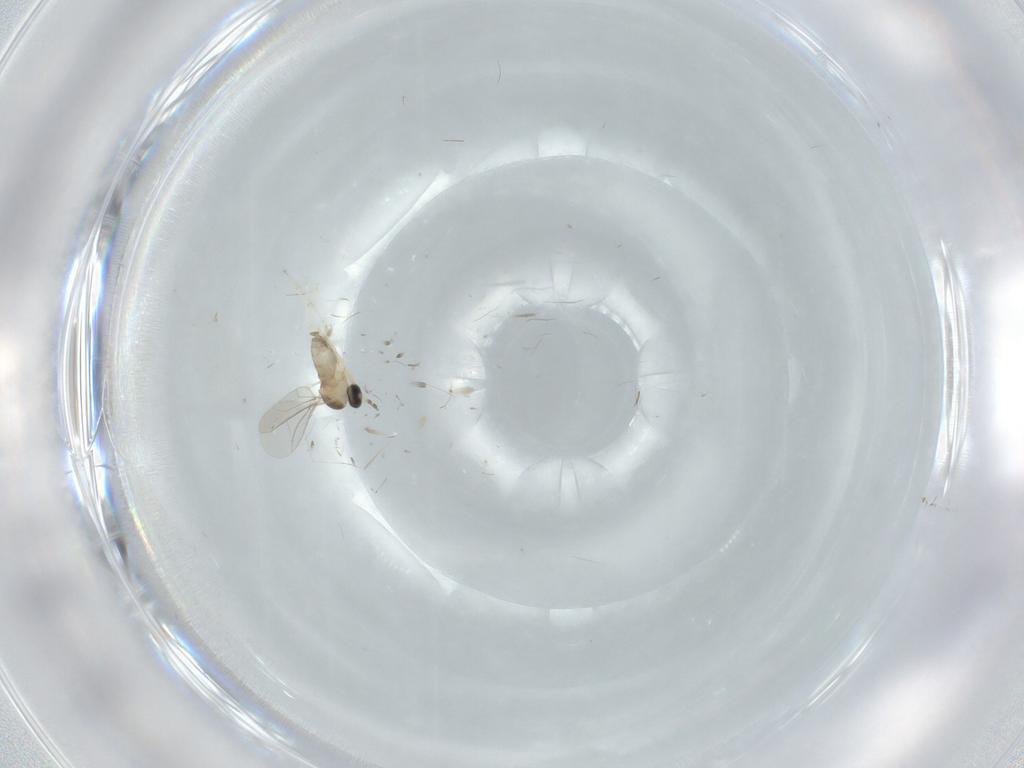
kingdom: Animalia
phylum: Arthropoda
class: Insecta
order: Diptera
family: Cecidomyiidae
